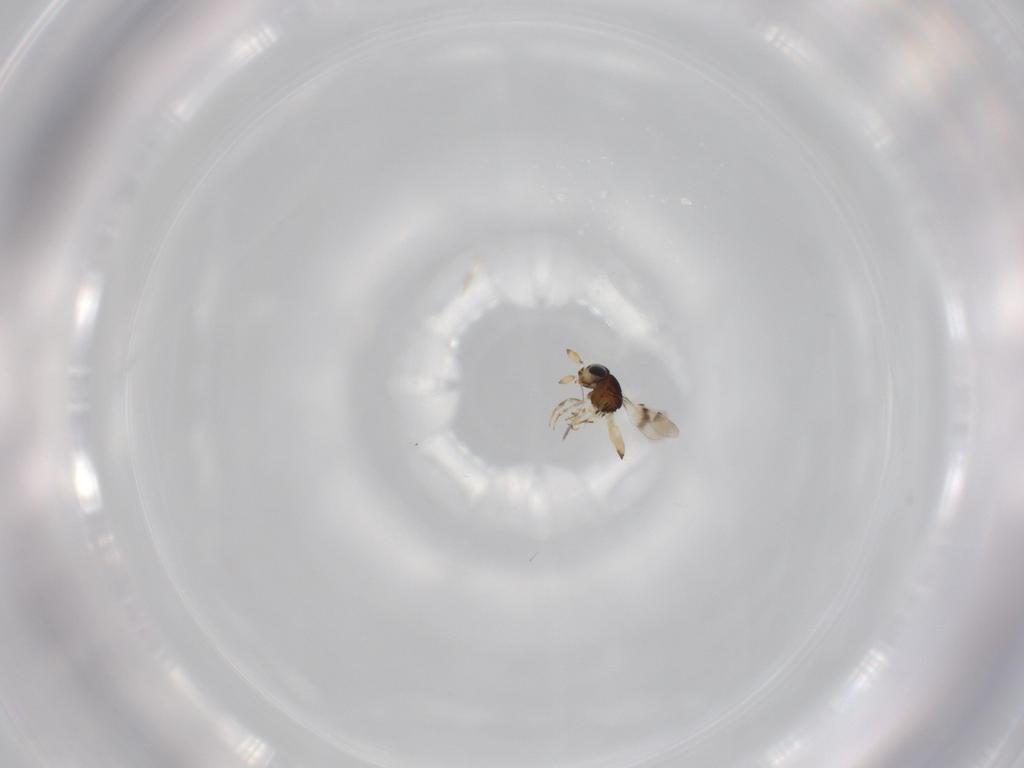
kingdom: Animalia
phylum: Arthropoda
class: Insecta
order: Hymenoptera
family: Scelionidae
